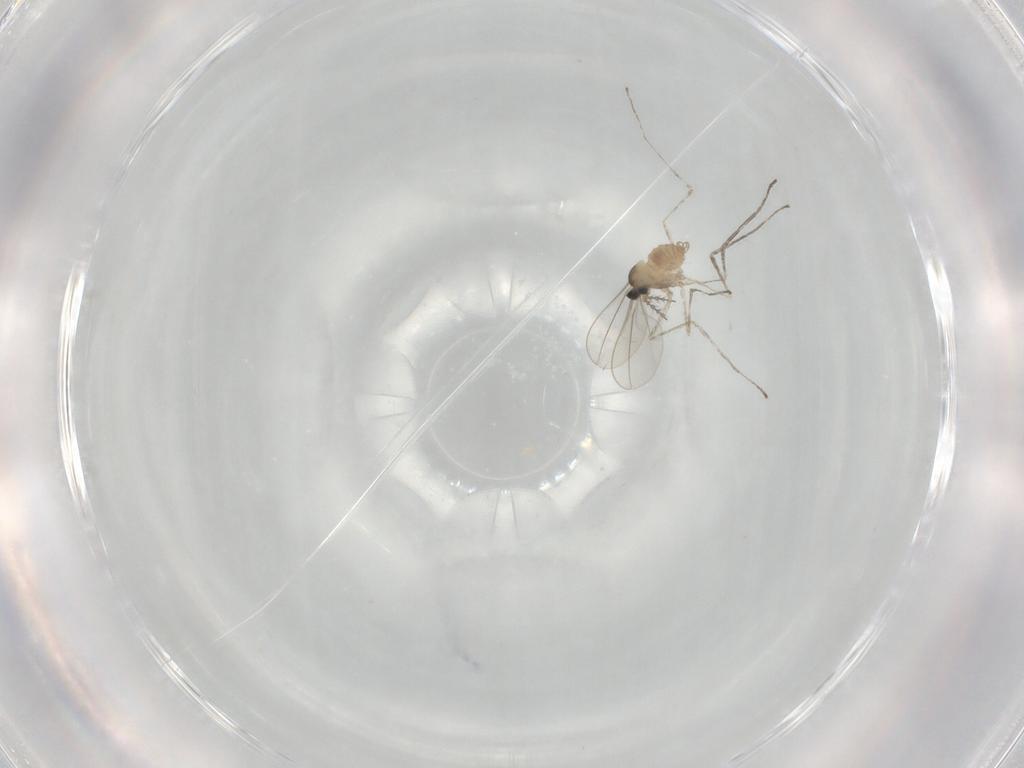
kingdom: Animalia
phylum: Arthropoda
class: Insecta
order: Diptera
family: Cecidomyiidae
